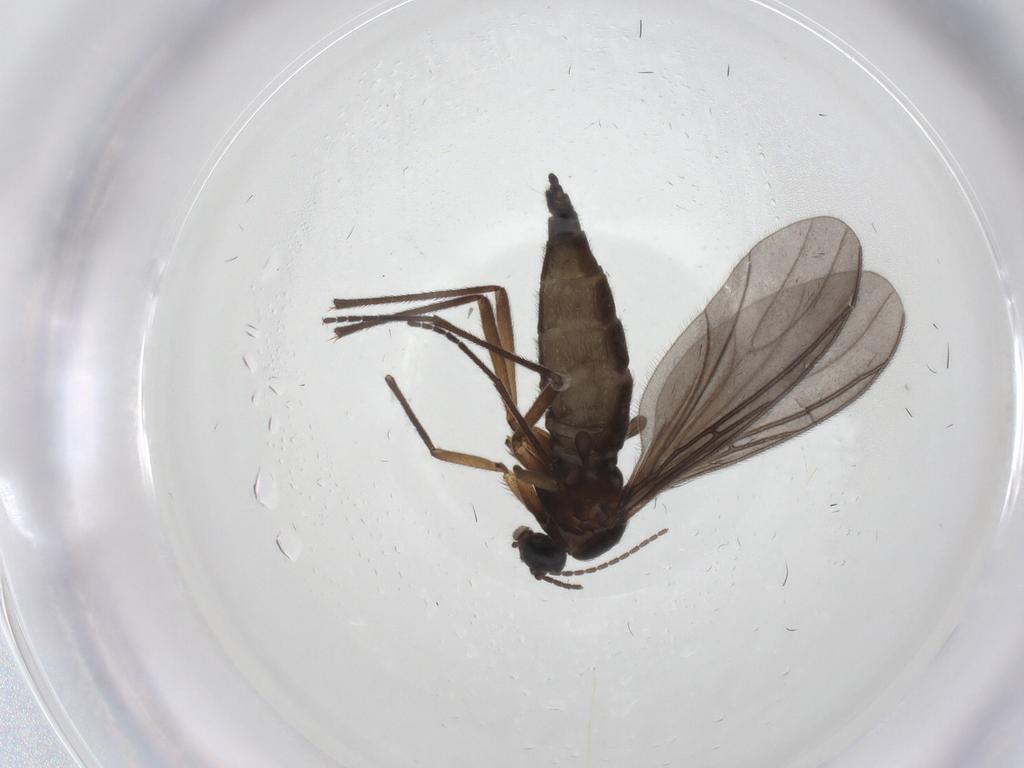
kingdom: Animalia
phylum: Arthropoda
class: Insecta
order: Diptera
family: Sciaridae
